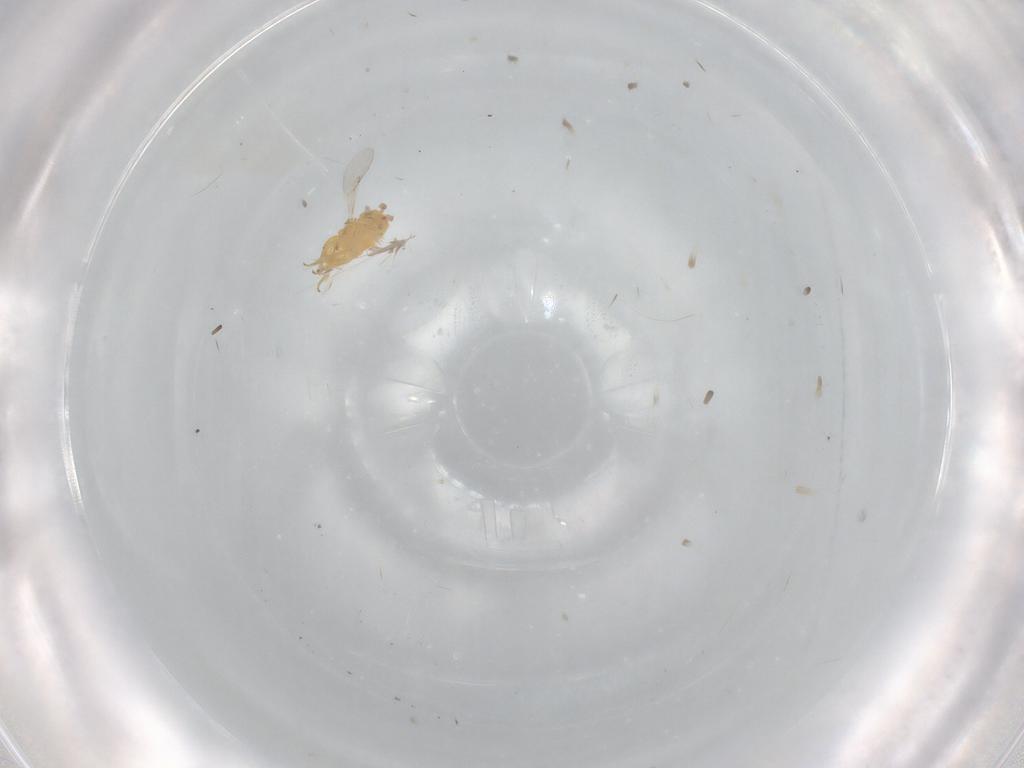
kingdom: Animalia
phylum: Arthropoda
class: Insecta
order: Hymenoptera
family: Encyrtidae
